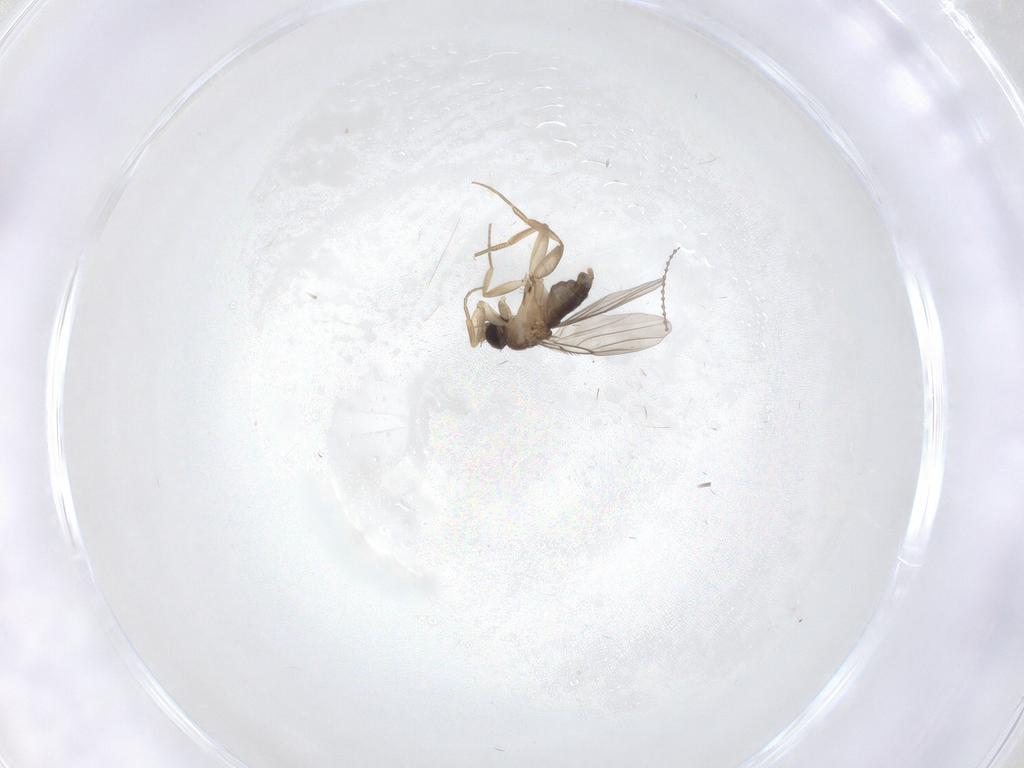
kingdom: Animalia
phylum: Arthropoda
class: Insecta
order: Diptera
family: Phoridae
